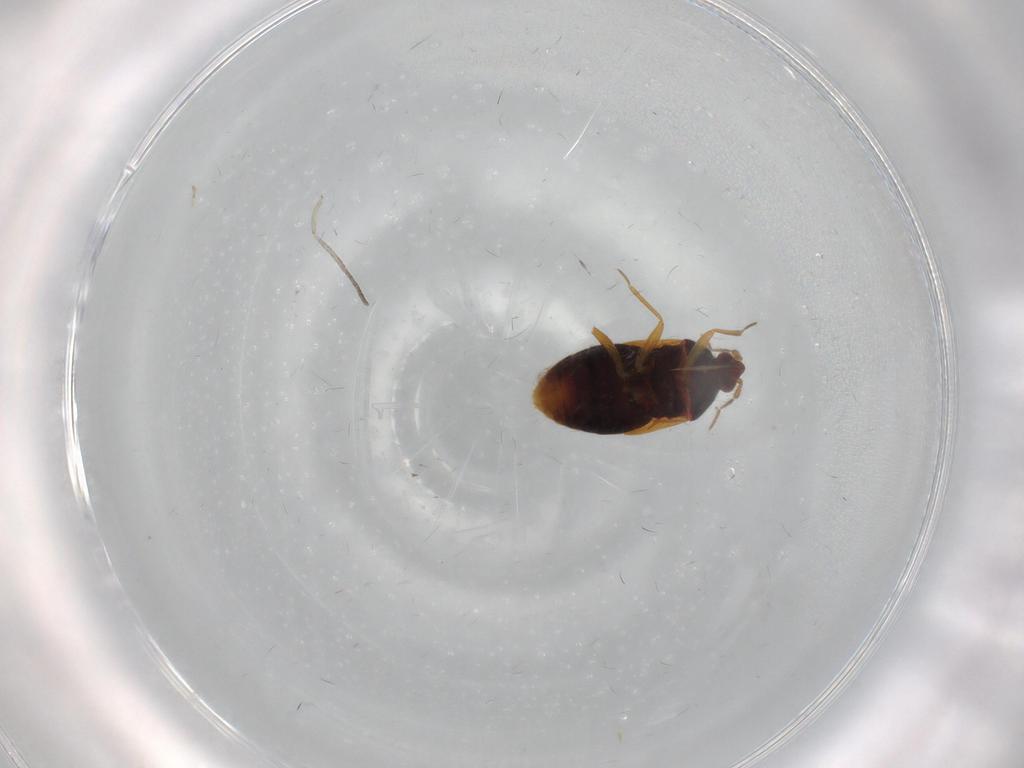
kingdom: Animalia
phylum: Arthropoda
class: Insecta
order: Hemiptera
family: Anthocoridae
